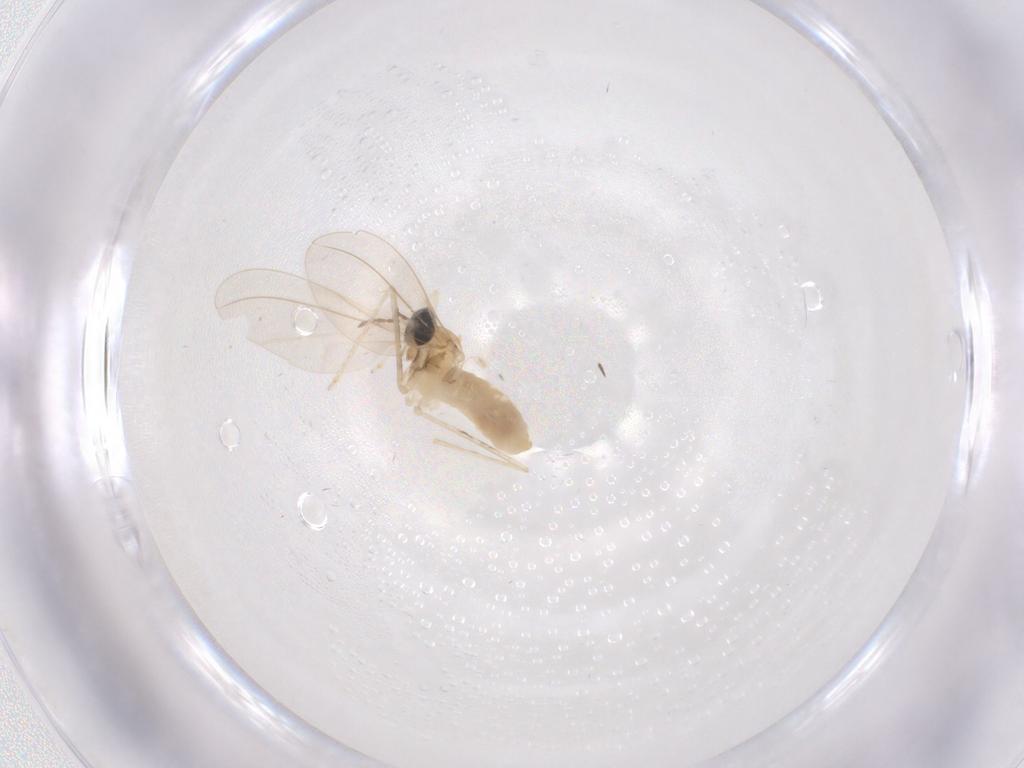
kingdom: Animalia
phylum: Arthropoda
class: Insecta
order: Diptera
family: Cecidomyiidae
